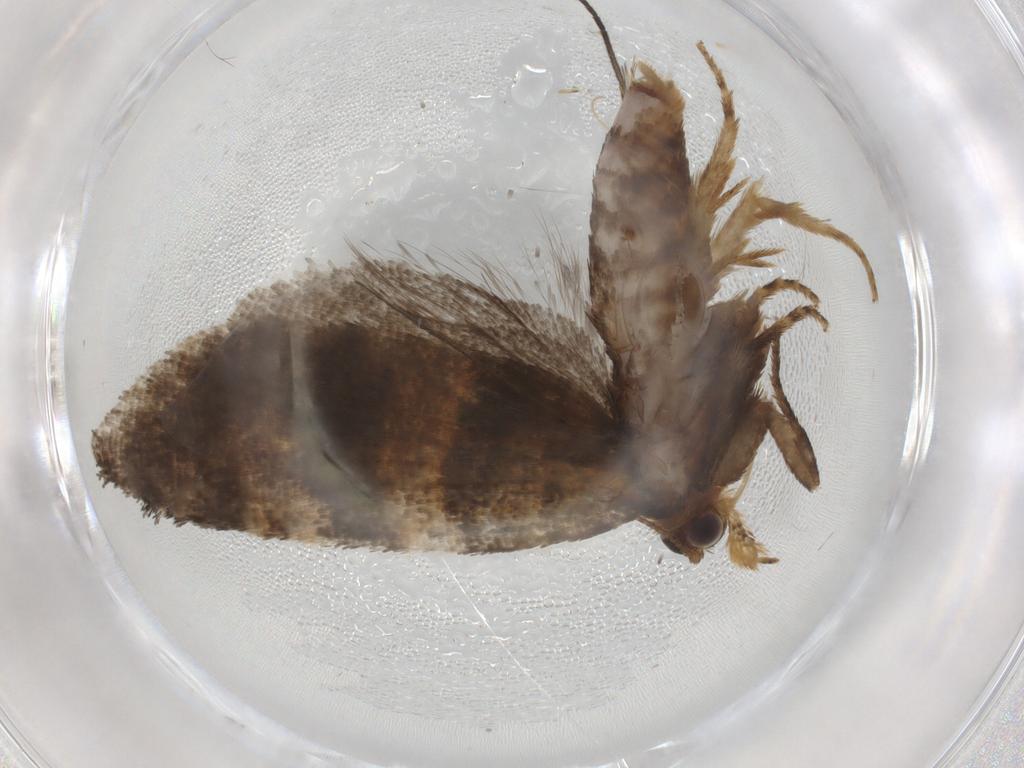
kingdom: Animalia
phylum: Arthropoda
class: Insecta
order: Lepidoptera
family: Tortricidae
